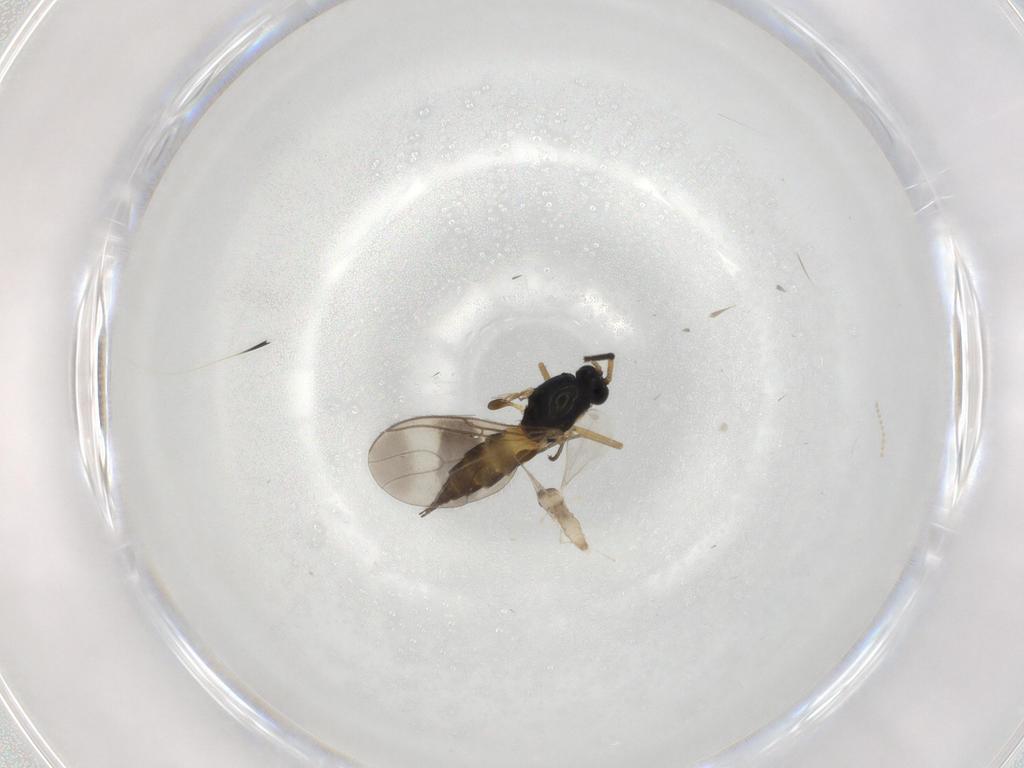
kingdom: Animalia
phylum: Arthropoda
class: Insecta
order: Diptera
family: Sciaridae
